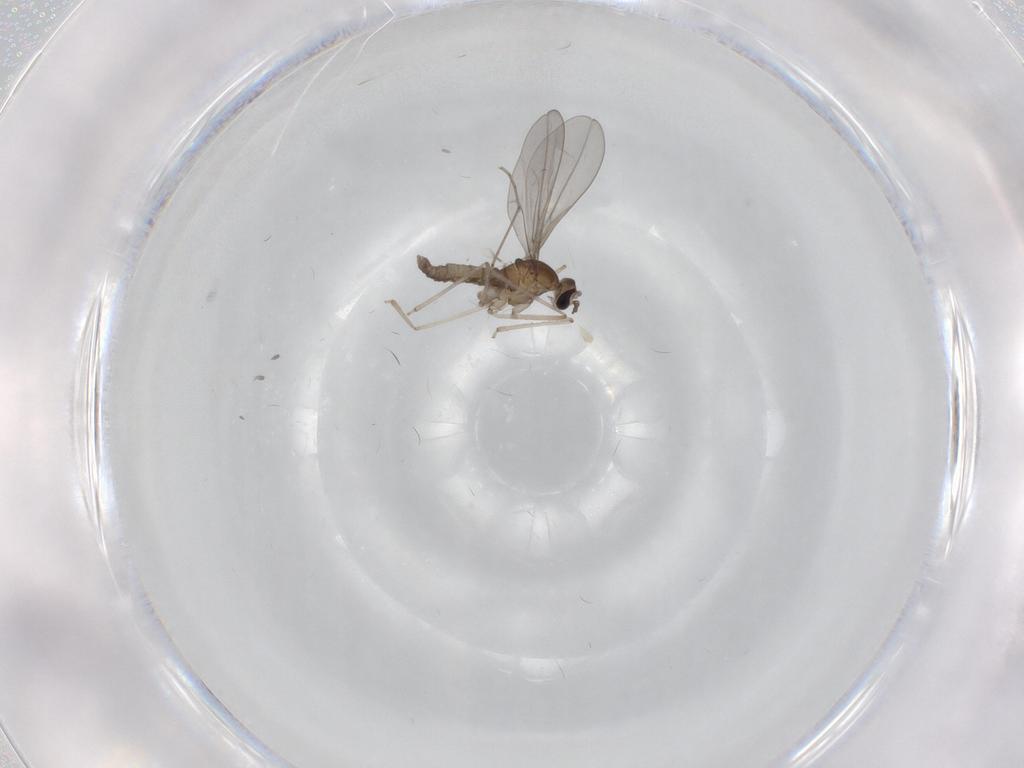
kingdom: Animalia
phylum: Arthropoda
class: Insecta
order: Diptera
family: Cecidomyiidae
